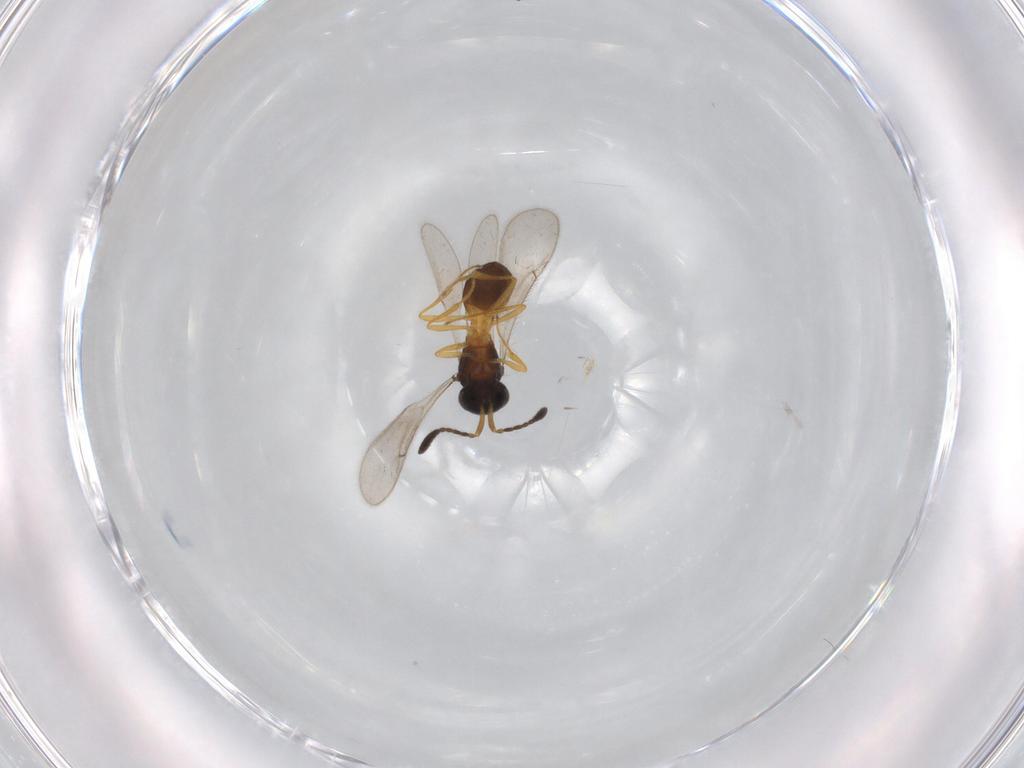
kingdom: Animalia
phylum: Arthropoda
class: Insecta
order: Hymenoptera
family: Scelionidae
